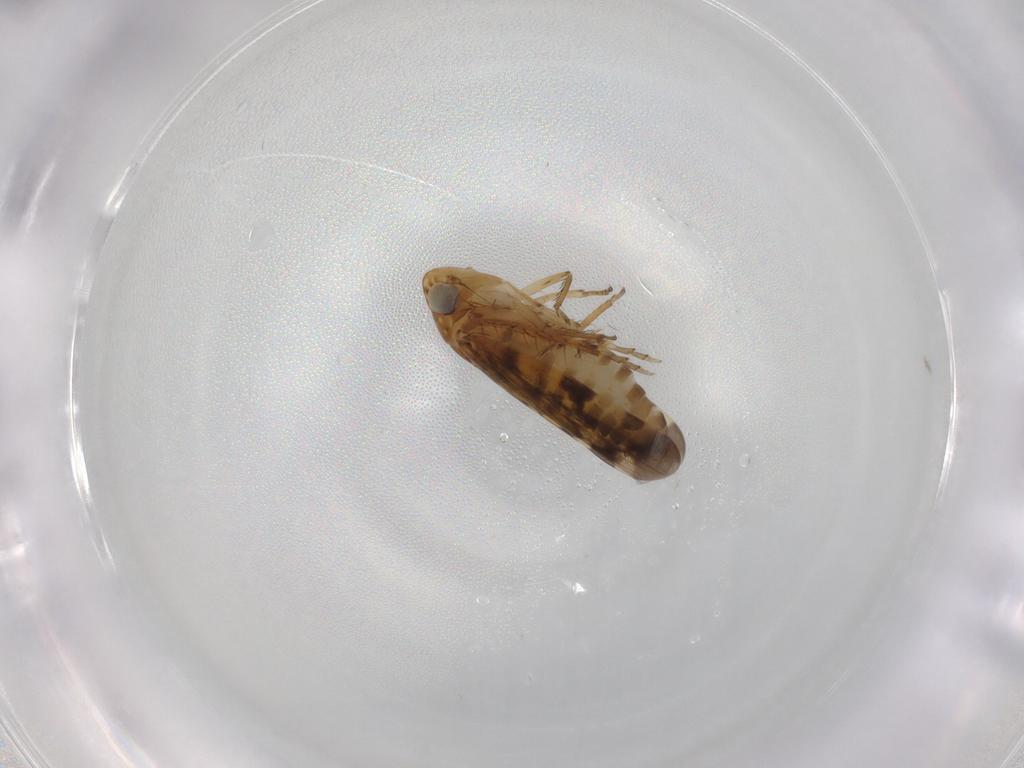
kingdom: Animalia
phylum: Arthropoda
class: Insecta
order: Hemiptera
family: Cicadellidae
